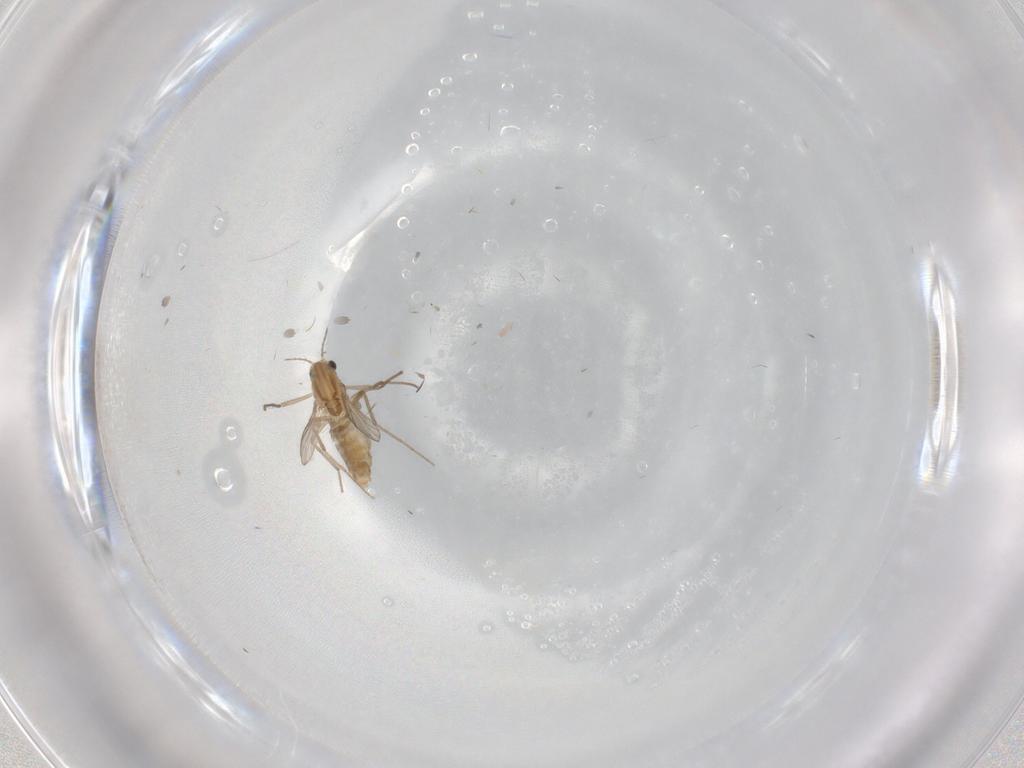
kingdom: Animalia
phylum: Arthropoda
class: Insecta
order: Diptera
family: Chironomidae
